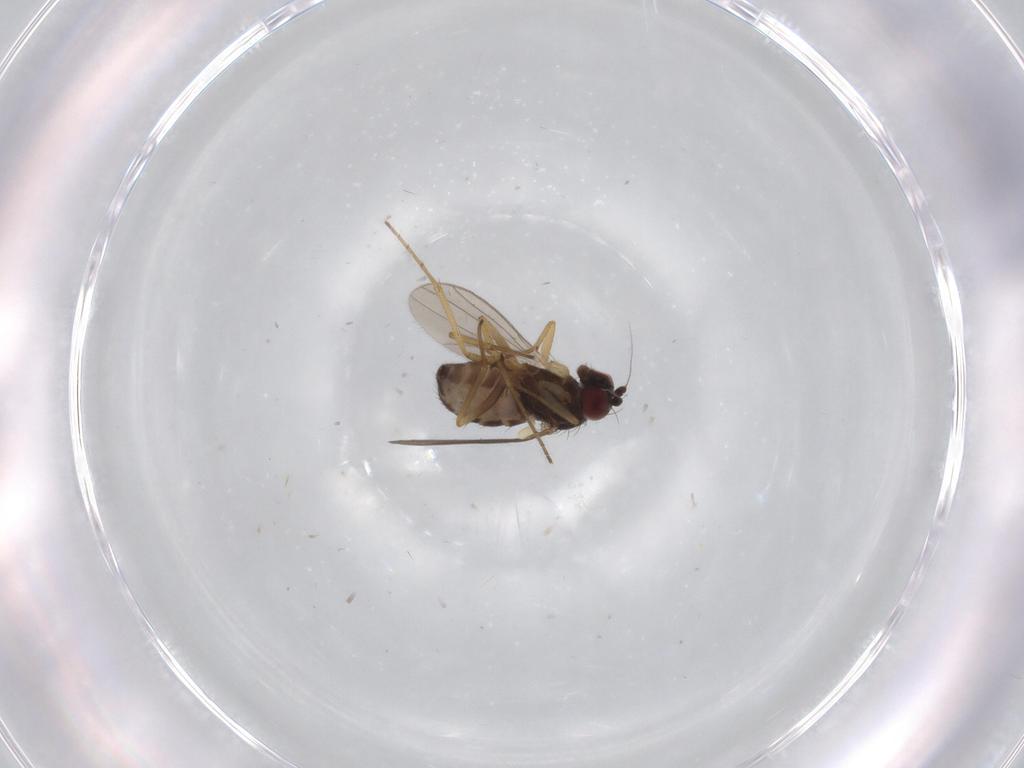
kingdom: Animalia
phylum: Arthropoda
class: Insecta
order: Diptera
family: Dolichopodidae
